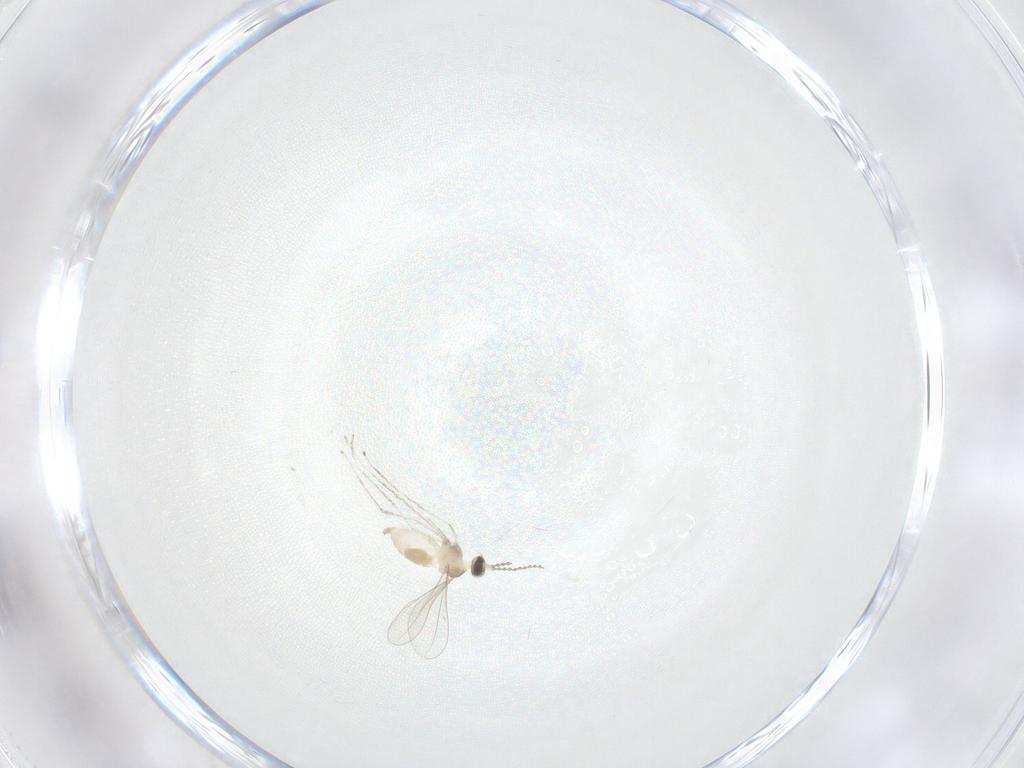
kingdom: Animalia
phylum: Arthropoda
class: Insecta
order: Diptera
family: Cecidomyiidae
